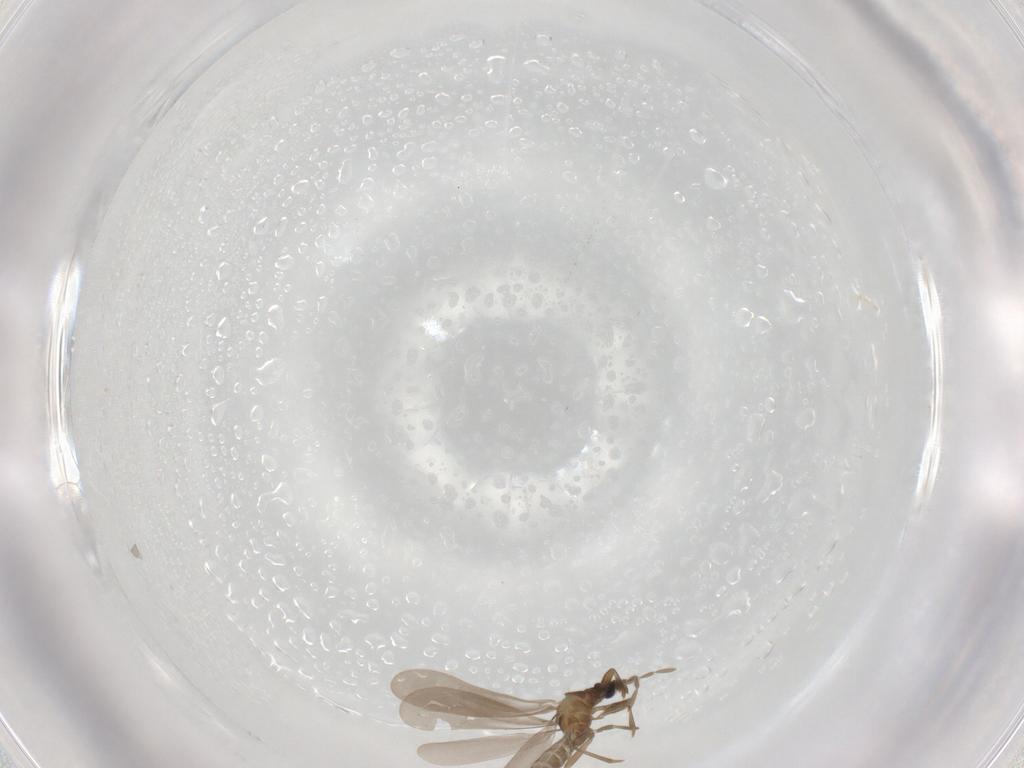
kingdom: Animalia
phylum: Arthropoda
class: Insecta
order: Hemiptera
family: Enicocephalidae
